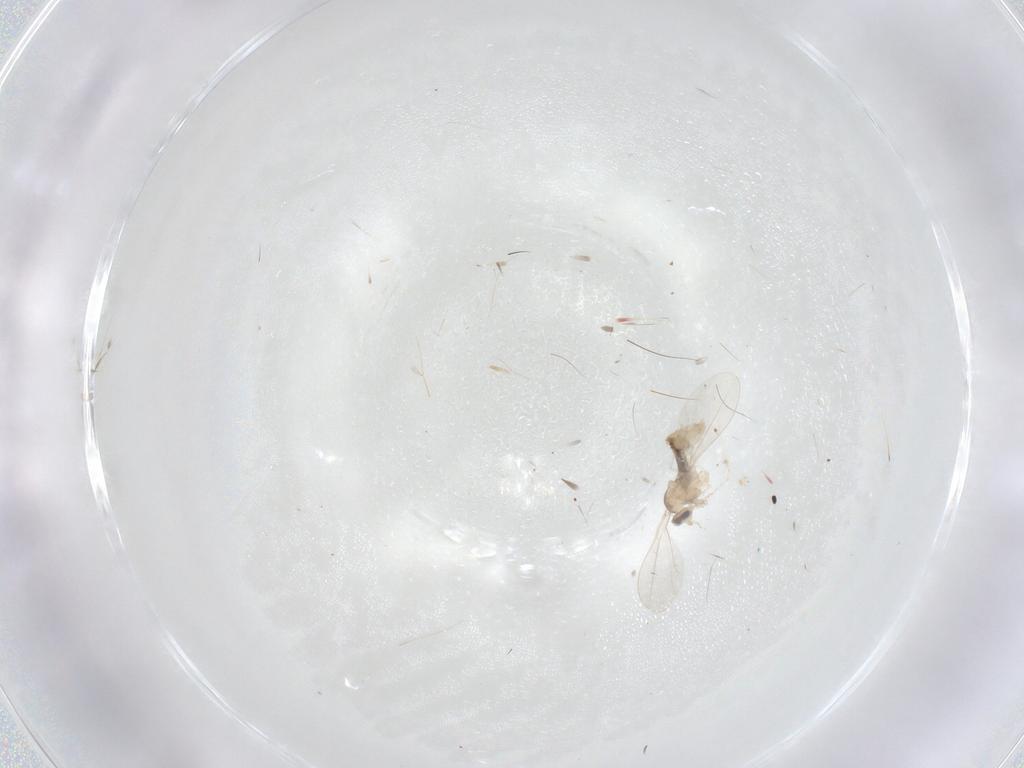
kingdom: Animalia
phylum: Arthropoda
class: Insecta
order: Diptera
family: Cecidomyiidae
